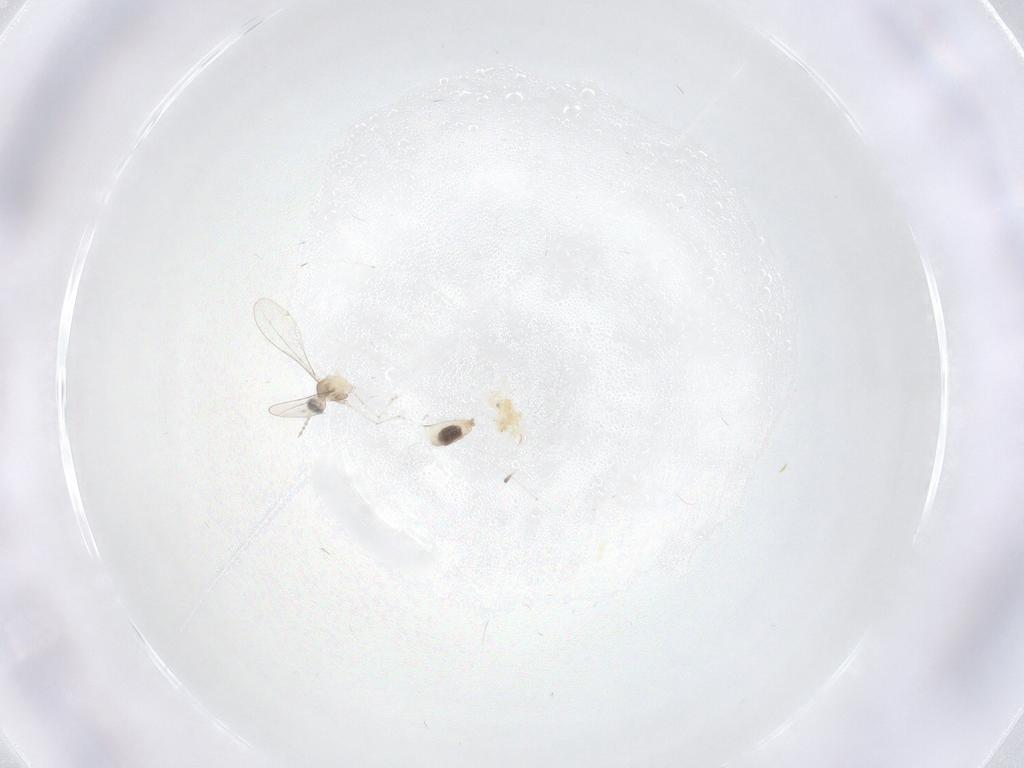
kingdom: Animalia
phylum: Arthropoda
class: Insecta
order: Diptera
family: Cecidomyiidae
